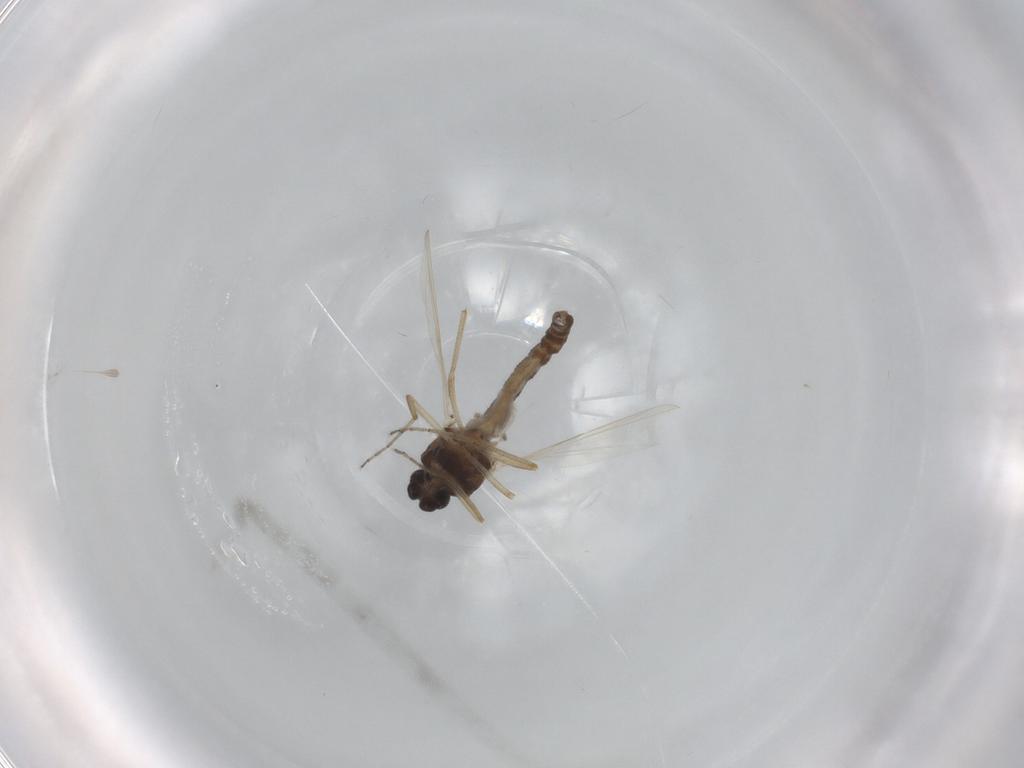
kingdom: Animalia
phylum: Arthropoda
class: Insecta
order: Diptera
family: Ceratopogonidae
